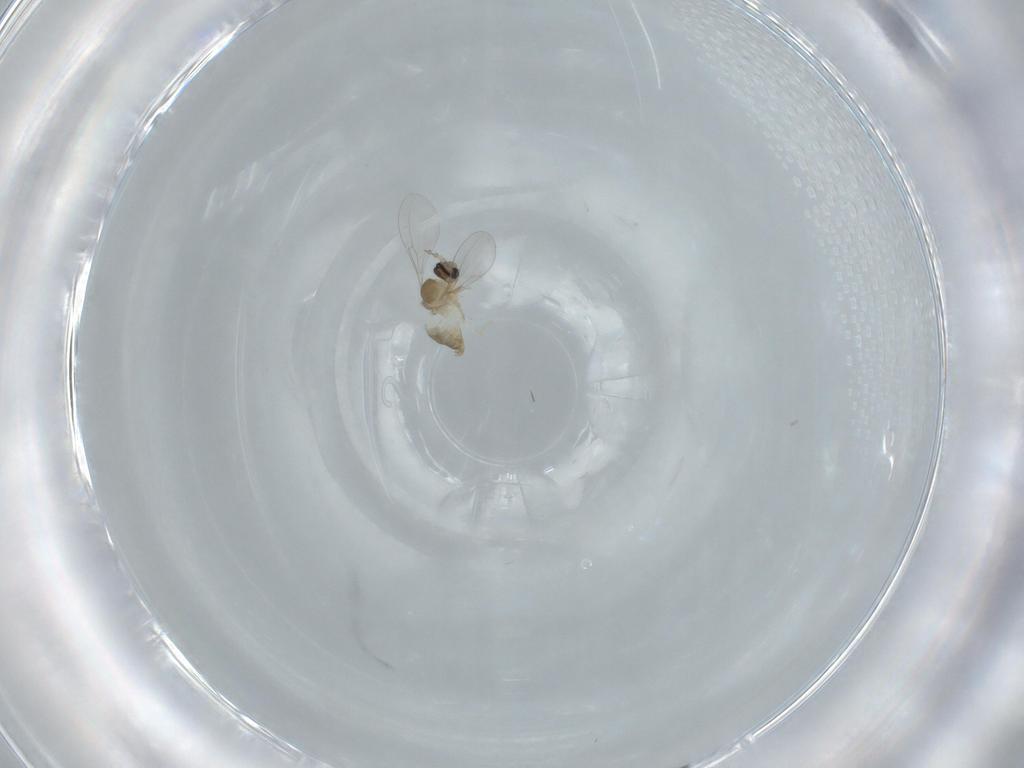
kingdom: Animalia
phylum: Arthropoda
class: Insecta
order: Diptera
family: Cecidomyiidae
